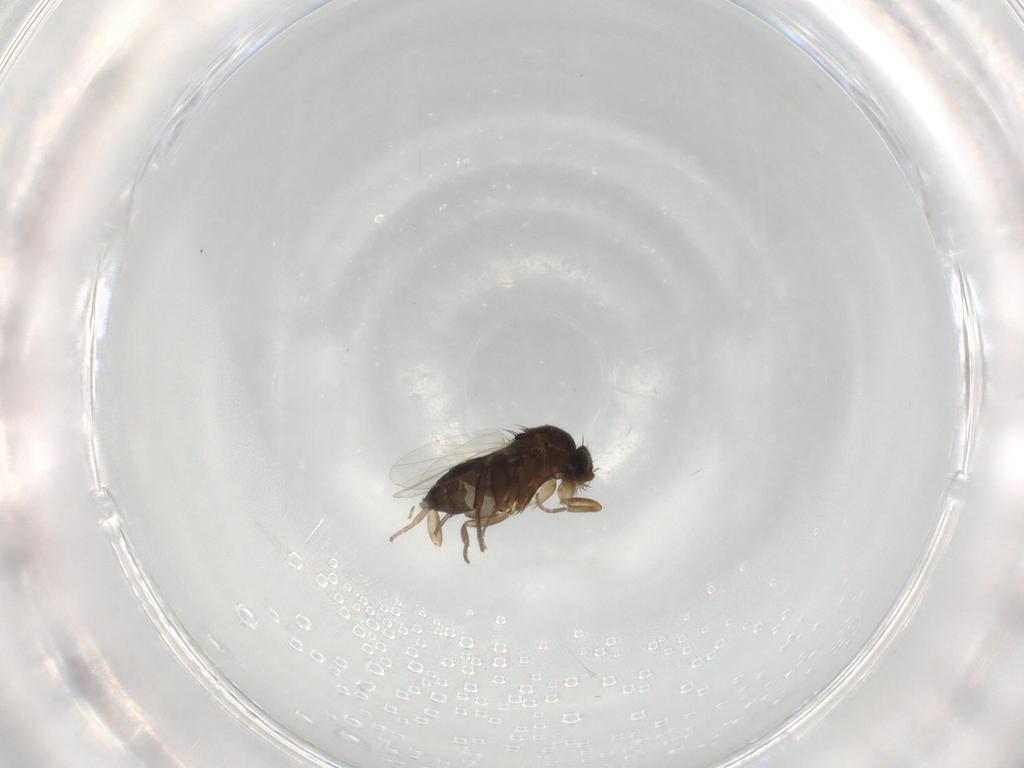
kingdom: Animalia
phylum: Arthropoda
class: Insecta
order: Diptera
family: Phoridae
